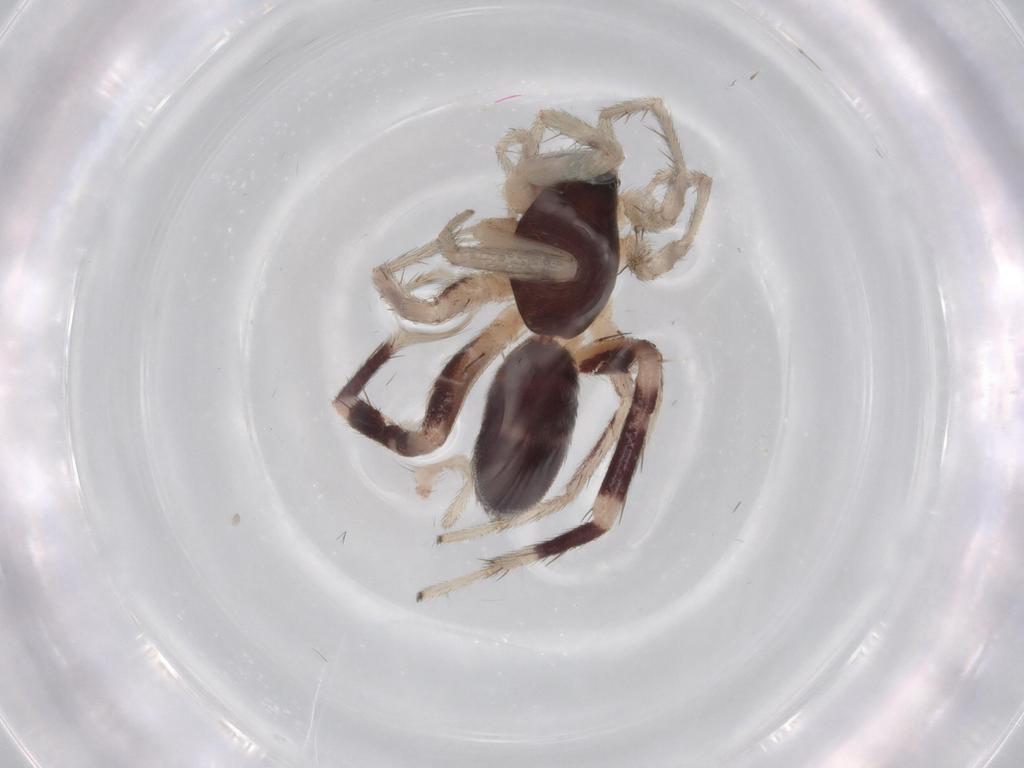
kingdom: Animalia
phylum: Arthropoda
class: Arachnida
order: Araneae
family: Corinnidae
